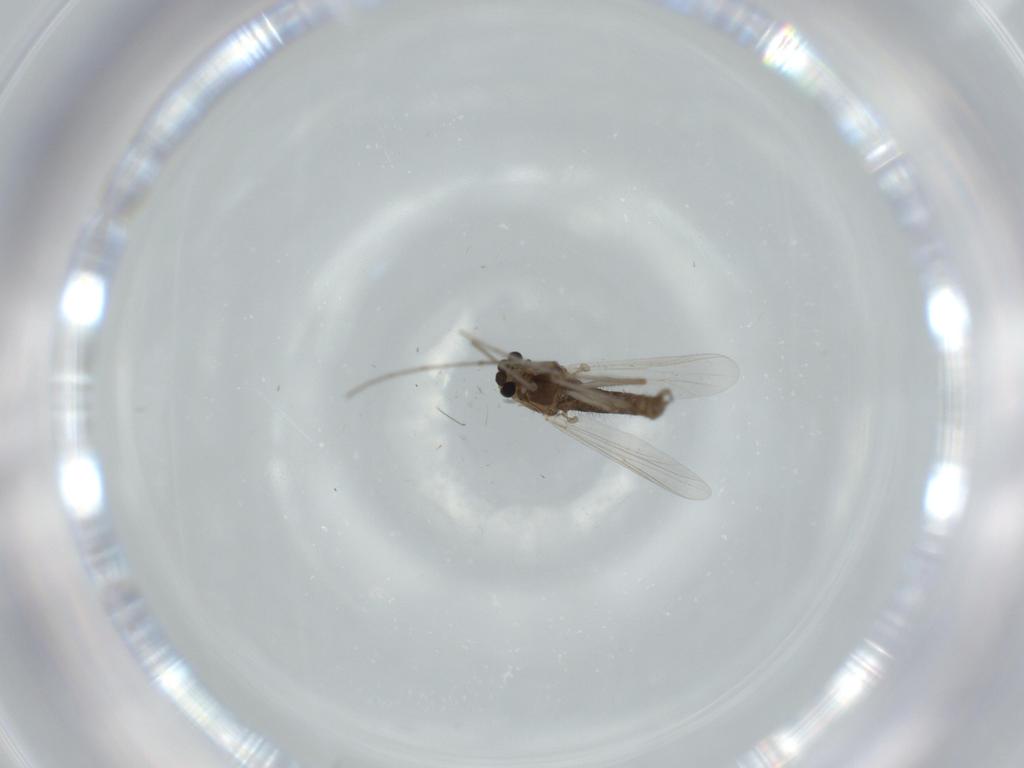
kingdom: Animalia
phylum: Arthropoda
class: Insecta
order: Diptera
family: Chironomidae
